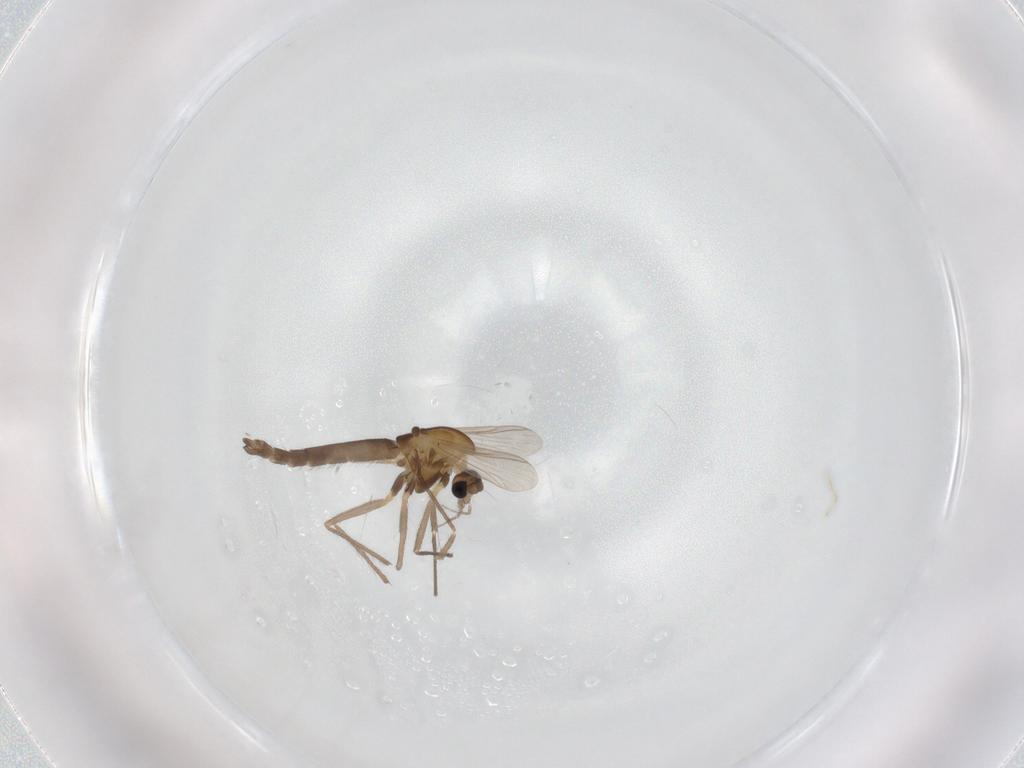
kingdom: Animalia
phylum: Arthropoda
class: Insecta
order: Diptera
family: Chironomidae
